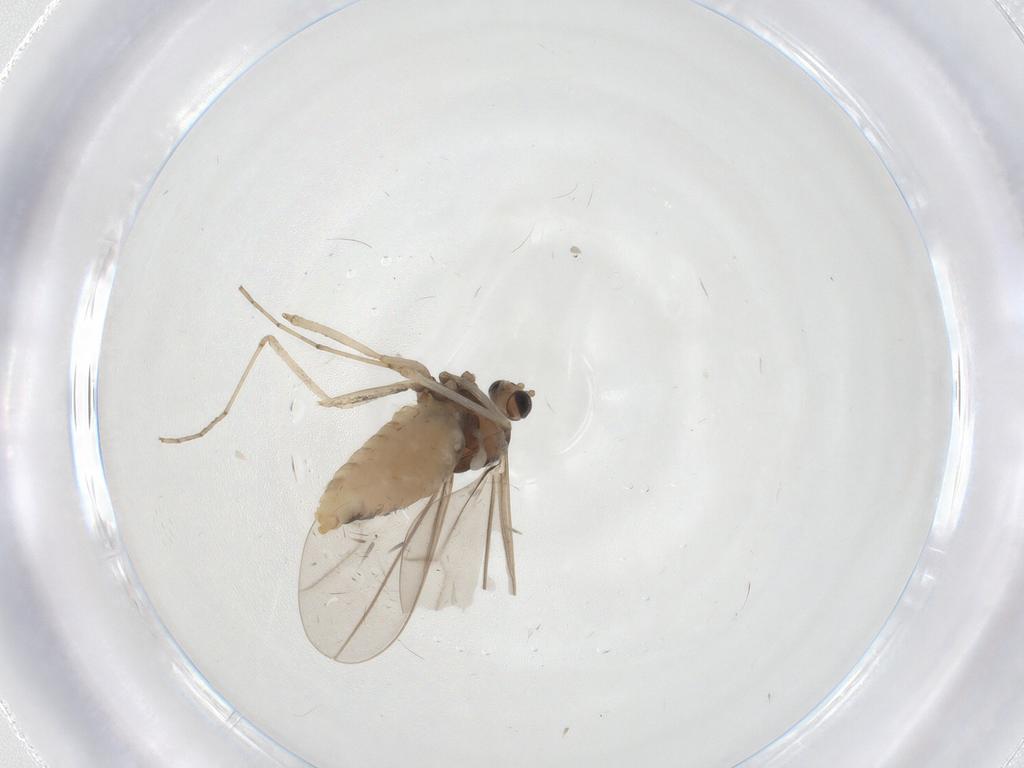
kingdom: Animalia
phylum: Arthropoda
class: Insecta
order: Diptera
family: Cecidomyiidae
